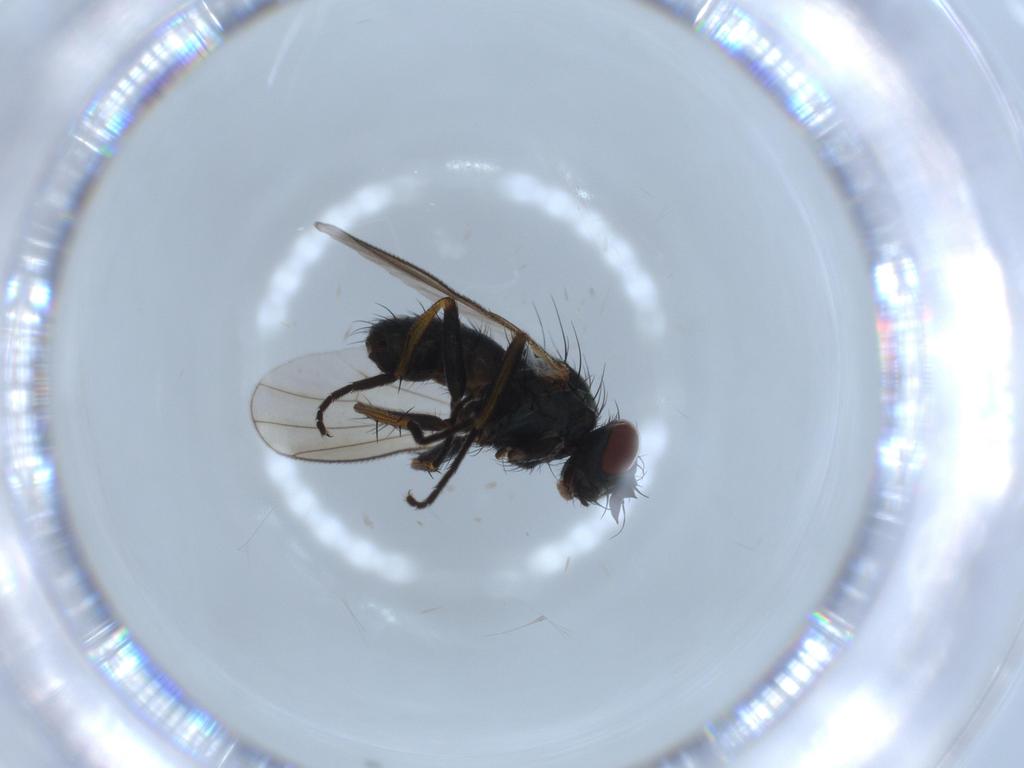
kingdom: Animalia
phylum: Arthropoda
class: Insecta
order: Diptera
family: Muscidae
